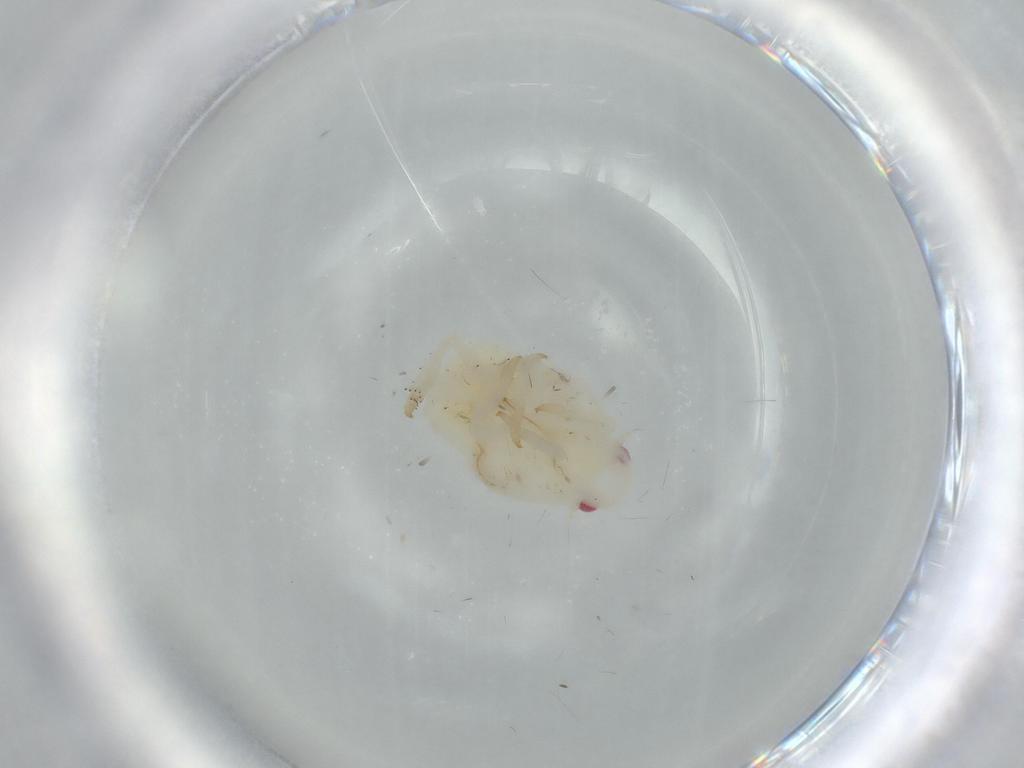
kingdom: Animalia
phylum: Arthropoda
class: Insecta
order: Hemiptera
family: Flatidae
